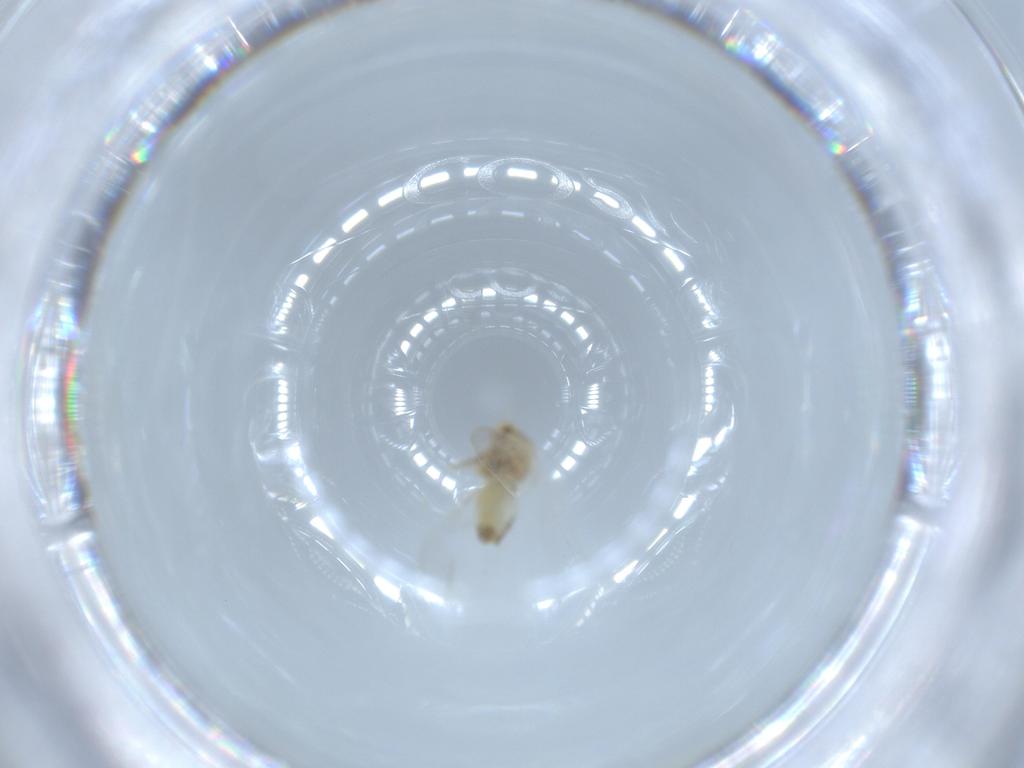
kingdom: Animalia
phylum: Arthropoda
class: Insecta
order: Hemiptera
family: Aleyrodidae
